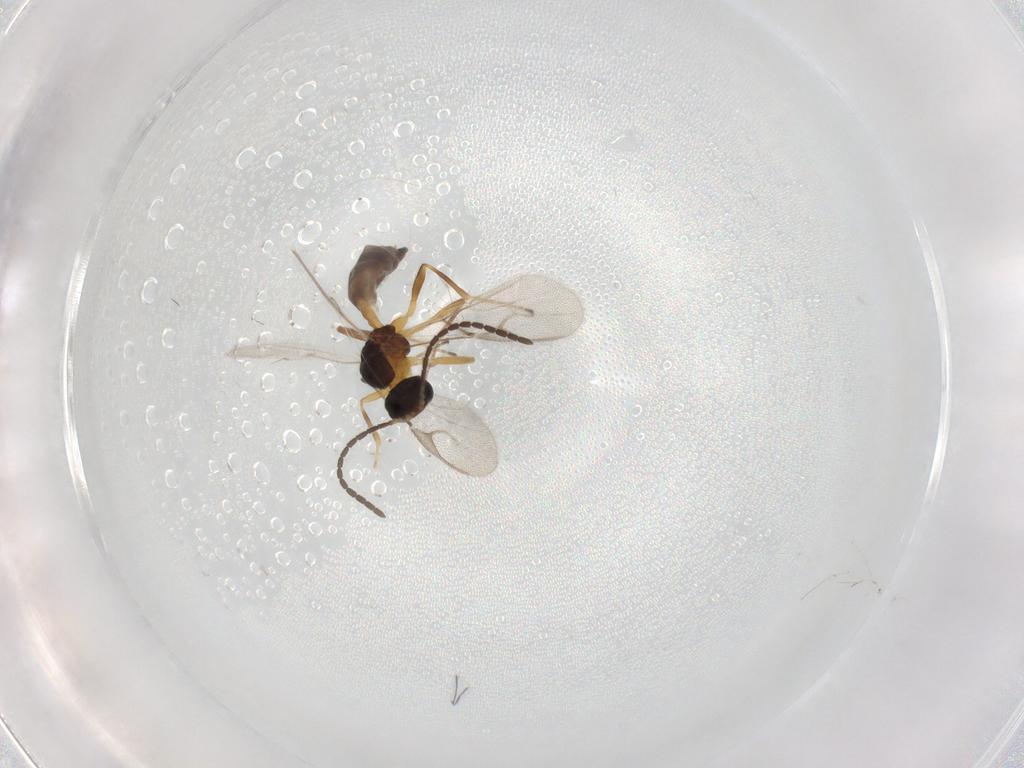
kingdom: Animalia
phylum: Arthropoda
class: Insecta
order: Hymenoptera
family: Braconidae
